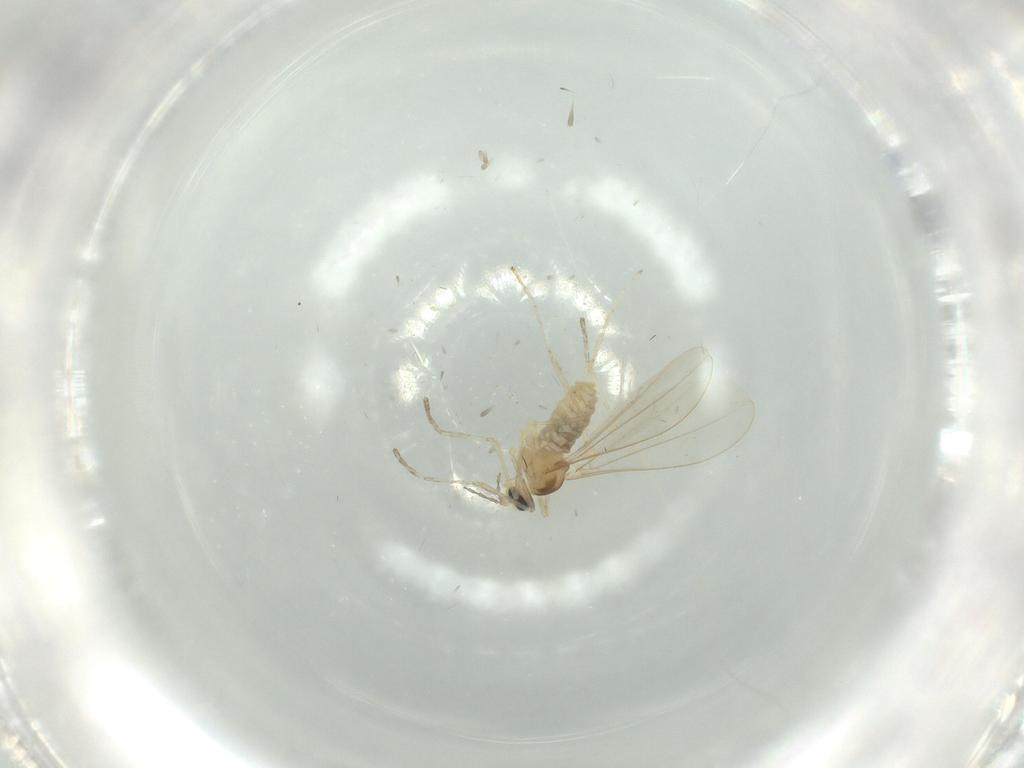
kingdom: Animalia
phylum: Arthropoda
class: Insecta
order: Diptera
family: Cecidomyiidae
